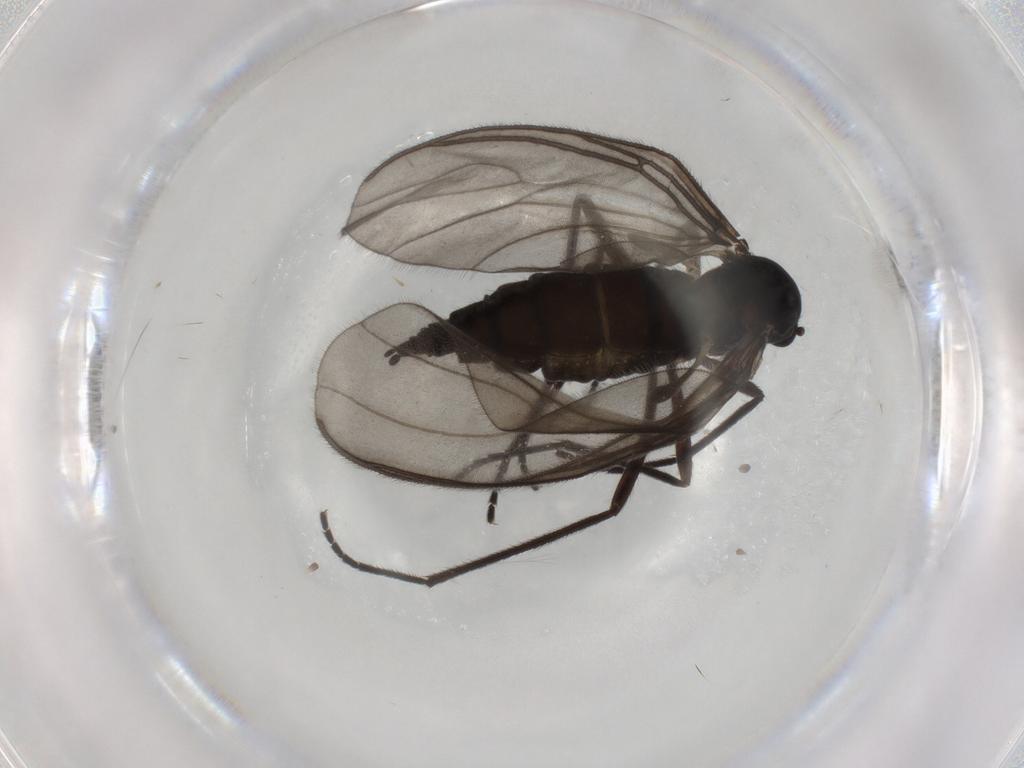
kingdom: Animalia
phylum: Arthropoda
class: Insecta
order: Diptera
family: Sciaridae
